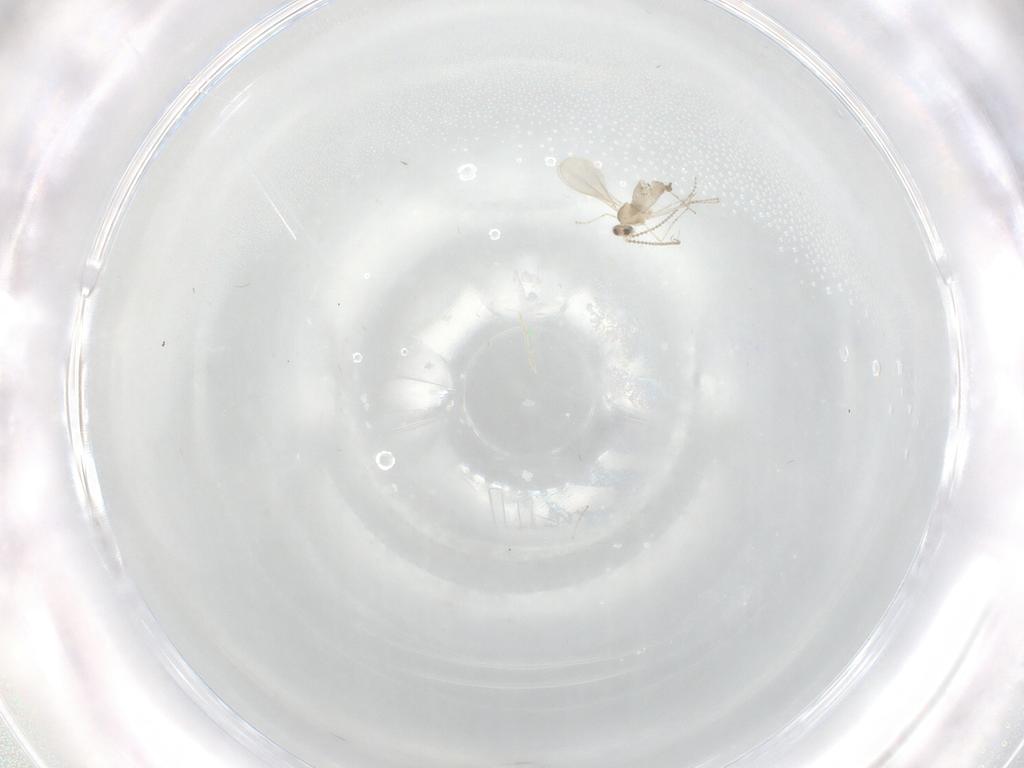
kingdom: Animalia
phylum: Arthropoda
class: Insecta
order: Diptera
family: Cecidomyiidae
